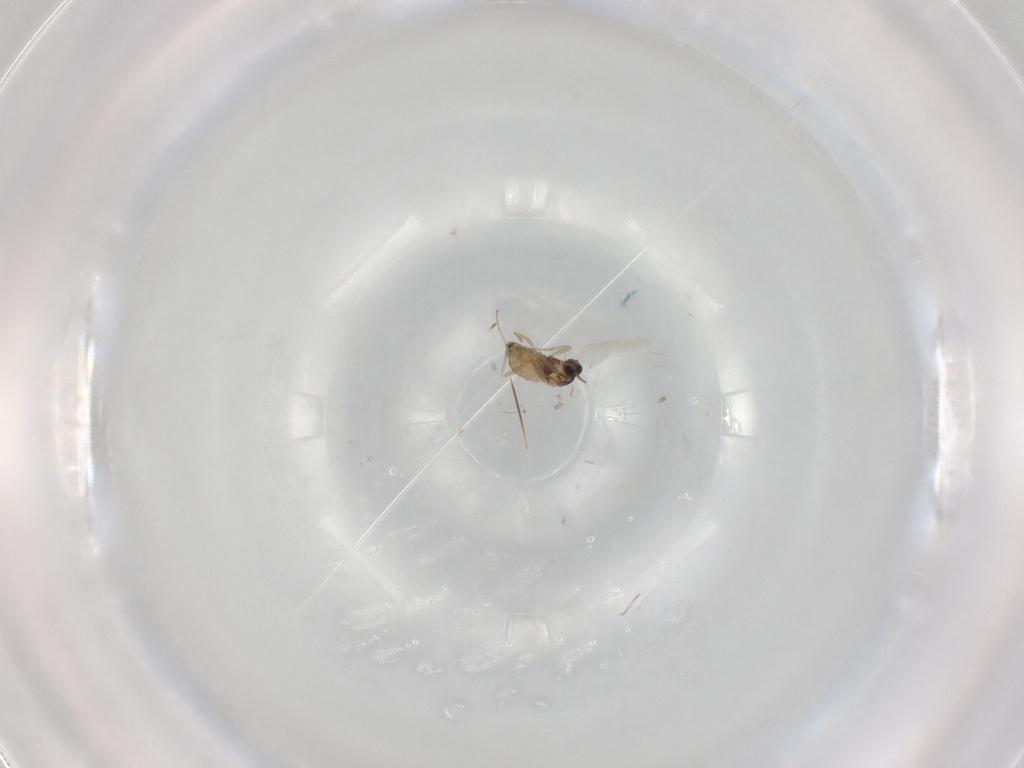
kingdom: Animalia
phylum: Arthropoda
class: Insecta
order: Diptera
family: Cecidomyiidae
